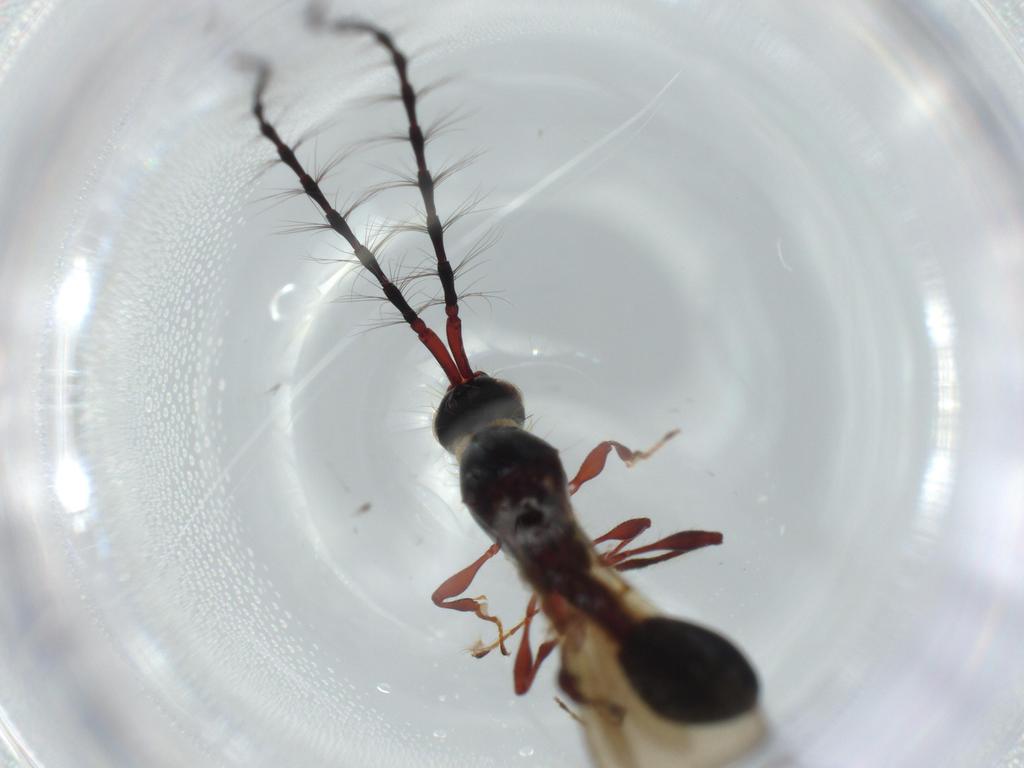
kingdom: Animalia
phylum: Arthropoda
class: Insecta
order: Hymenoptera
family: Diapriidae
